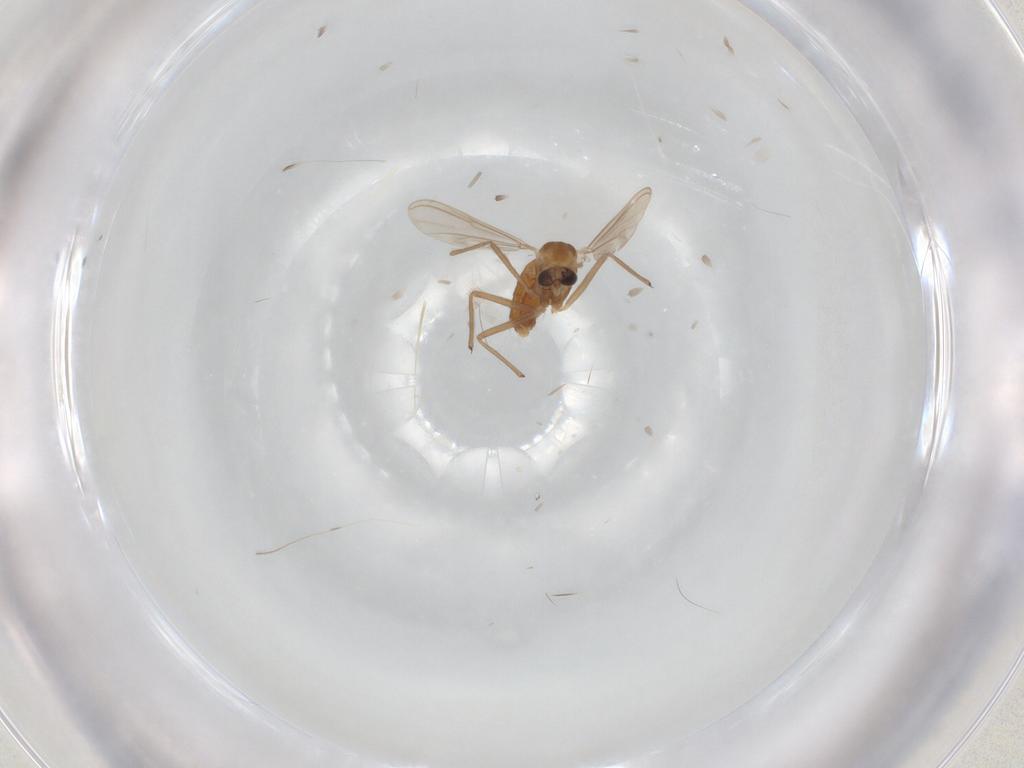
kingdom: Animalia
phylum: Arthropoda
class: Insecta
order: Diptera
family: Chironomidae
